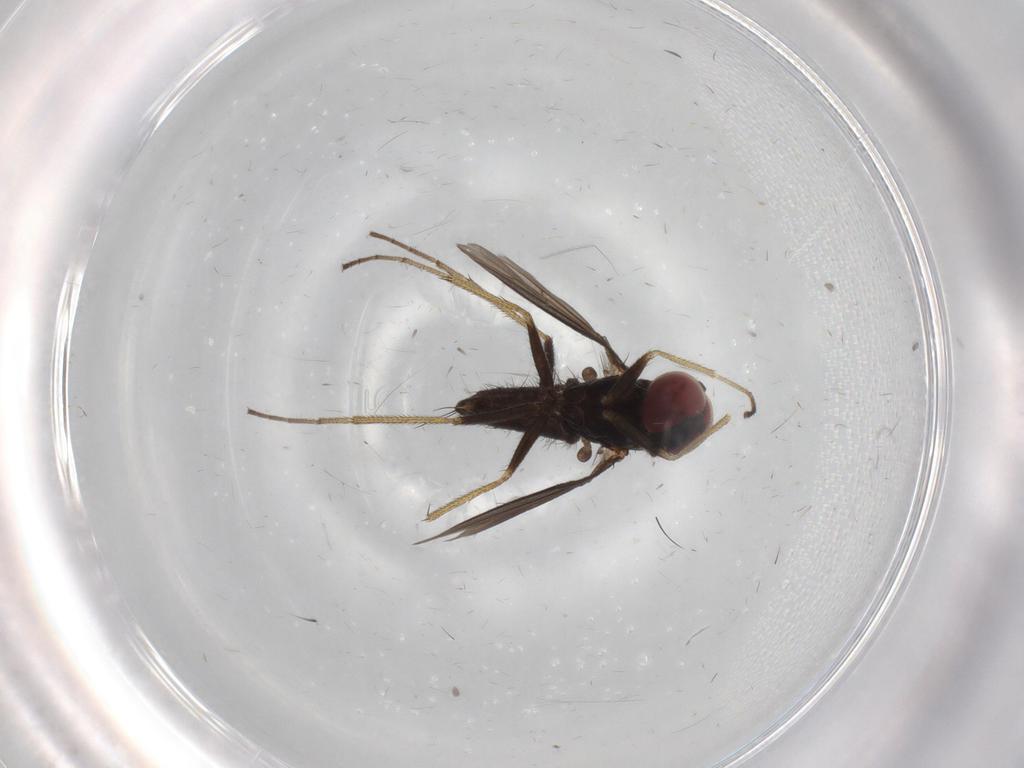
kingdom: Animalia
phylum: Arthropoda
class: Insecta
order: Diptera
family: Dolichopodidae
